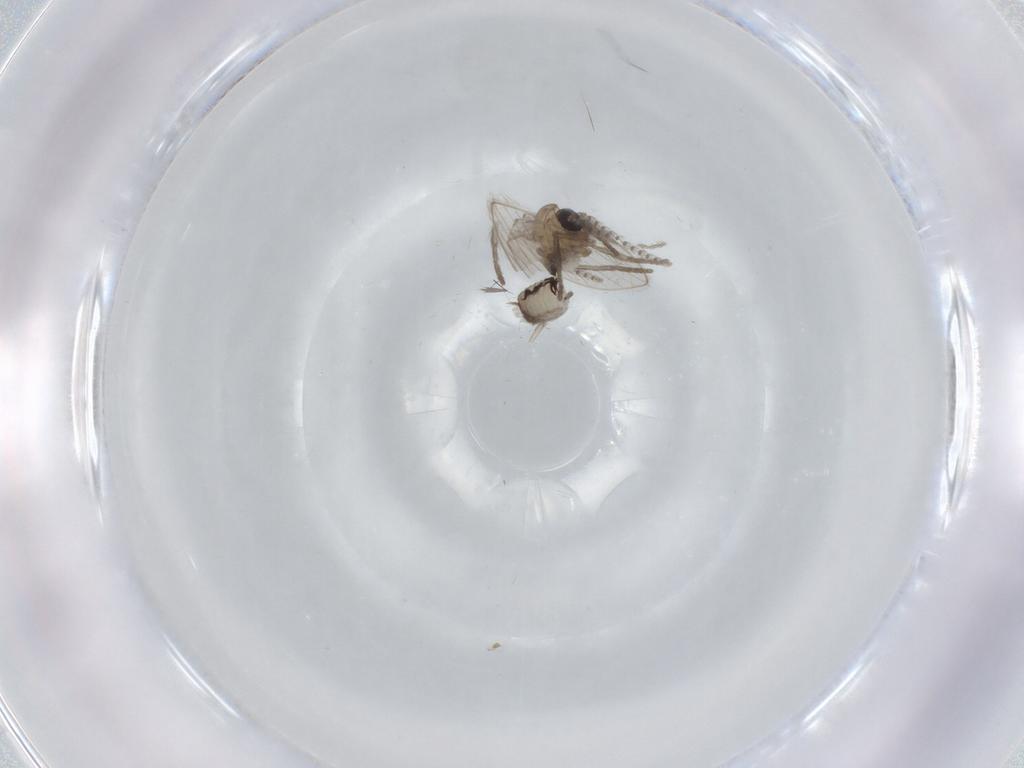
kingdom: Animalia
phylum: Arthropoda
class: Insecta
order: Diptera
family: Psychodidae
